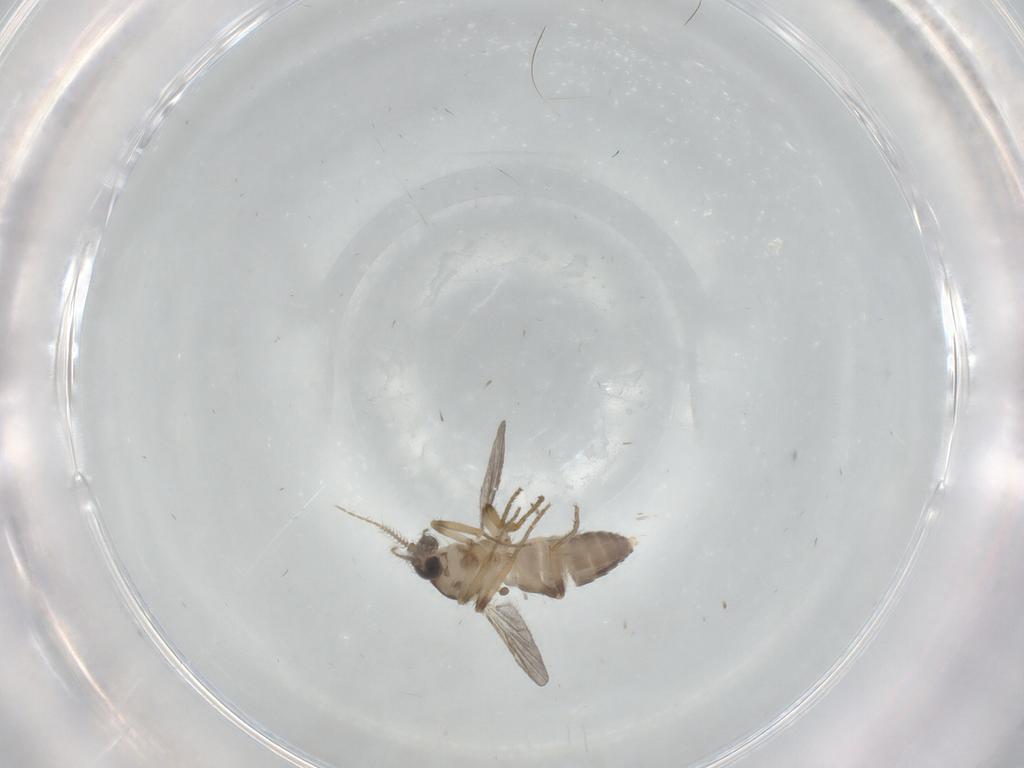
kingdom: Animalia
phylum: Arthropoda
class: Insecta
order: Diptera
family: Ceratopogonidae
